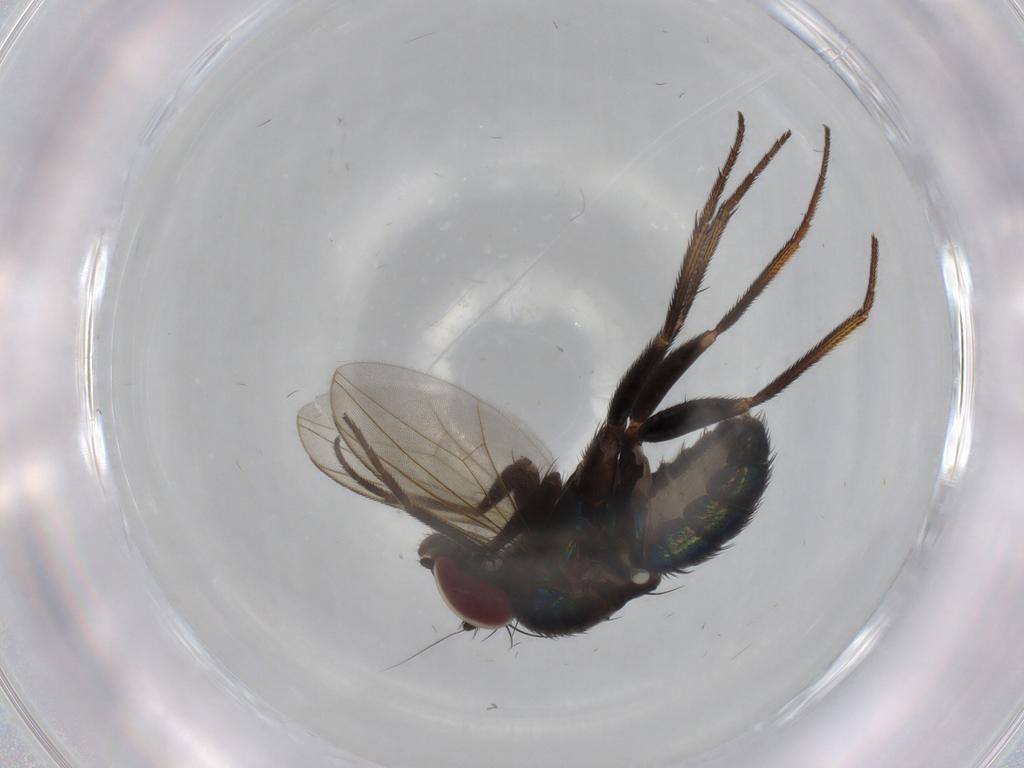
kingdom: Animalia
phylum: Arthropoda
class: Insecta
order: Diptera
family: Dolichopodidae
